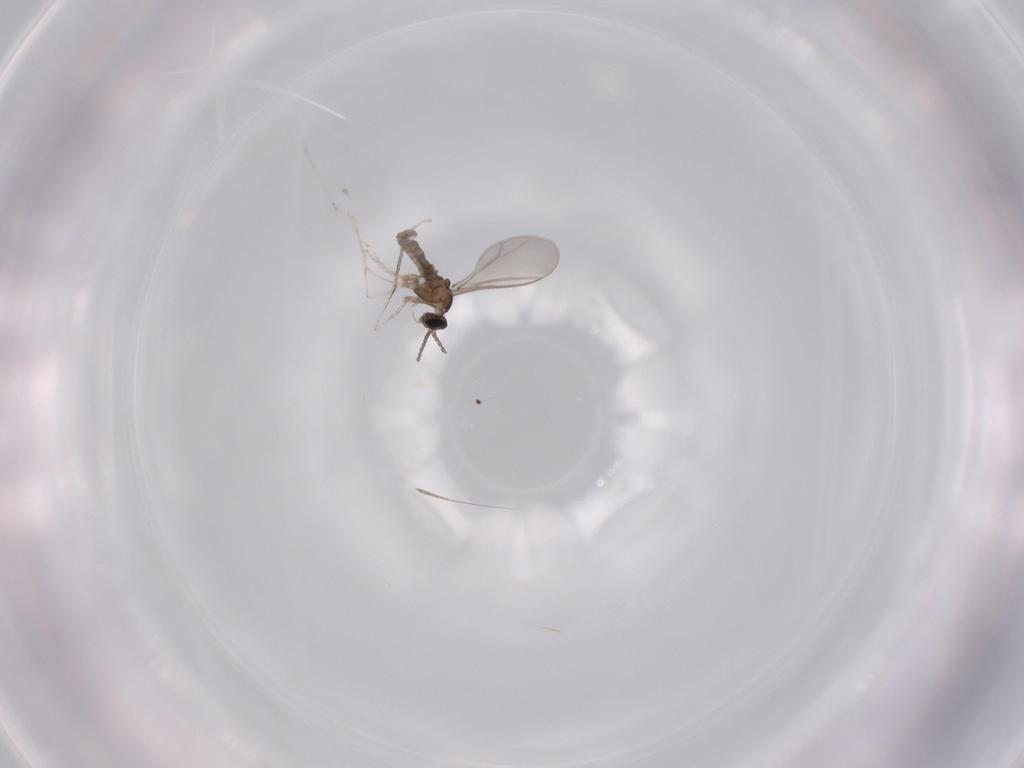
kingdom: Animalia
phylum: Arthropoda
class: Insecta
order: Diptera
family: Cecidomyiidae
